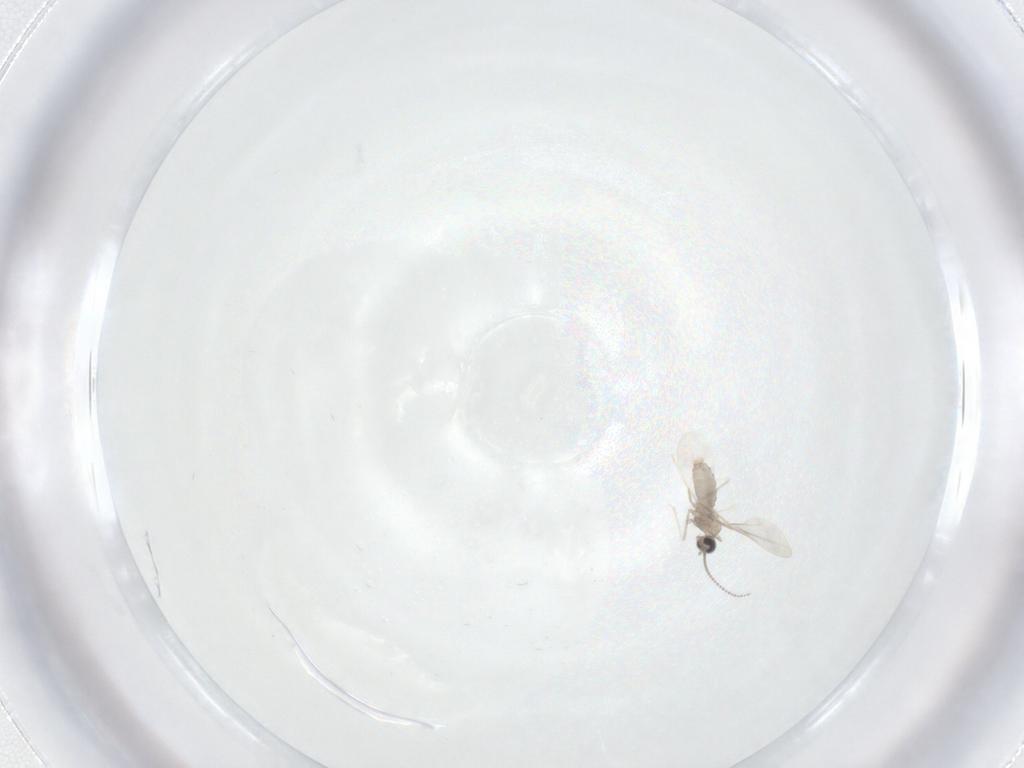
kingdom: Animalia
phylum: Arthropoda
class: Insecta
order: Diptera
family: Cecidomyiidae
